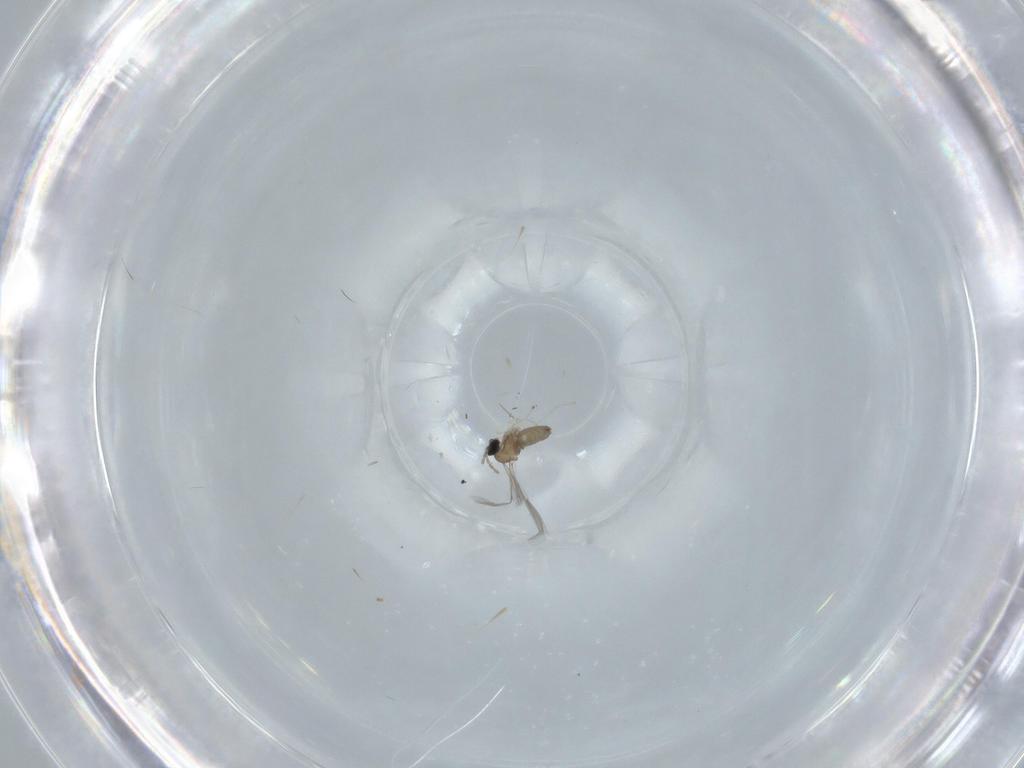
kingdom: Animalia
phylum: Arthropoda
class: Insecta
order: Diptera
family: Cecidomyiidae
